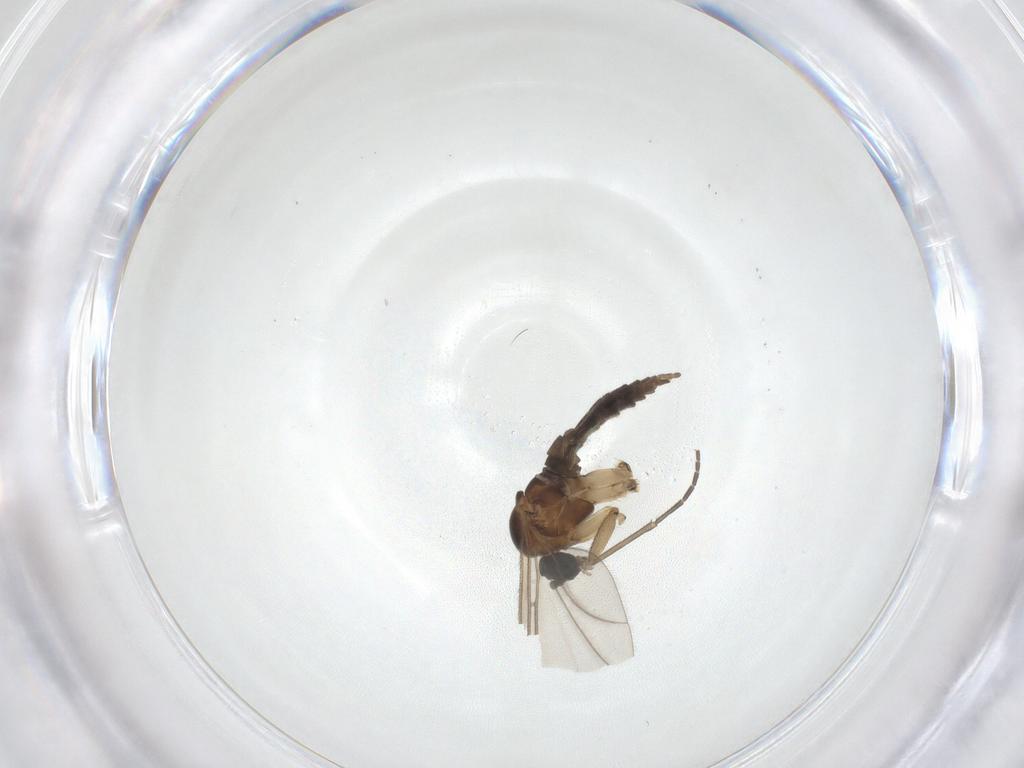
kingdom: Animalia
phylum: Arthropoda
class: Insecta
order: Diptera
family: Sciaridae
